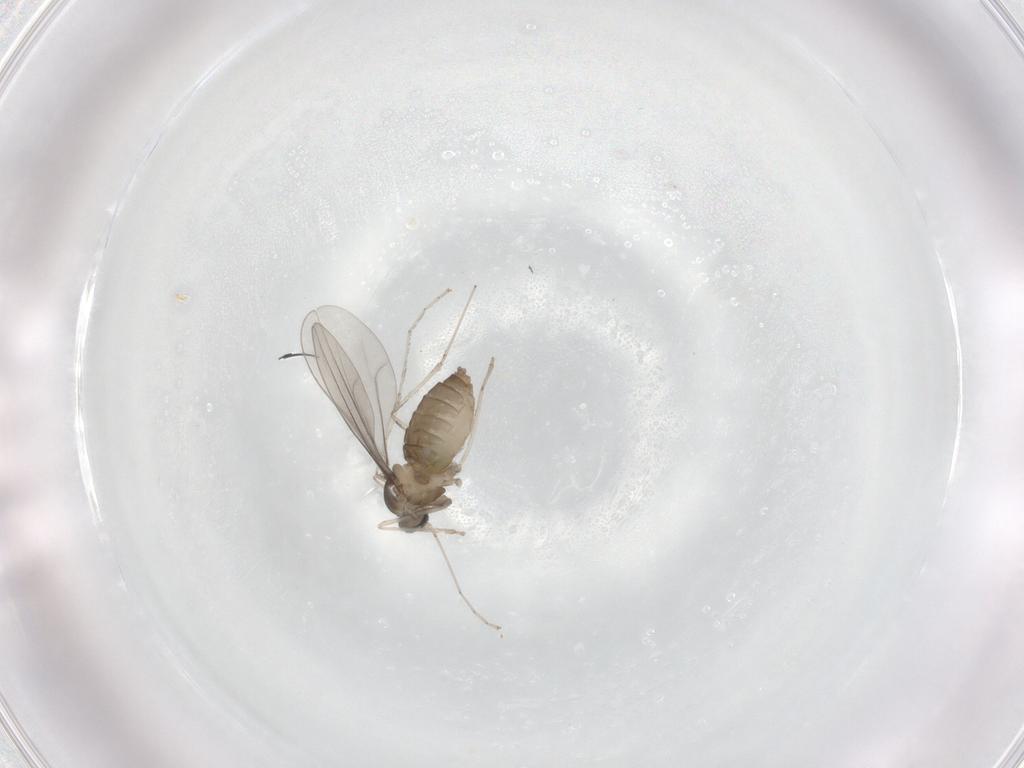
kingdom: Animalia
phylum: Arthropoda
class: Insecta
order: Diptera
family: Cecidomyiidae
